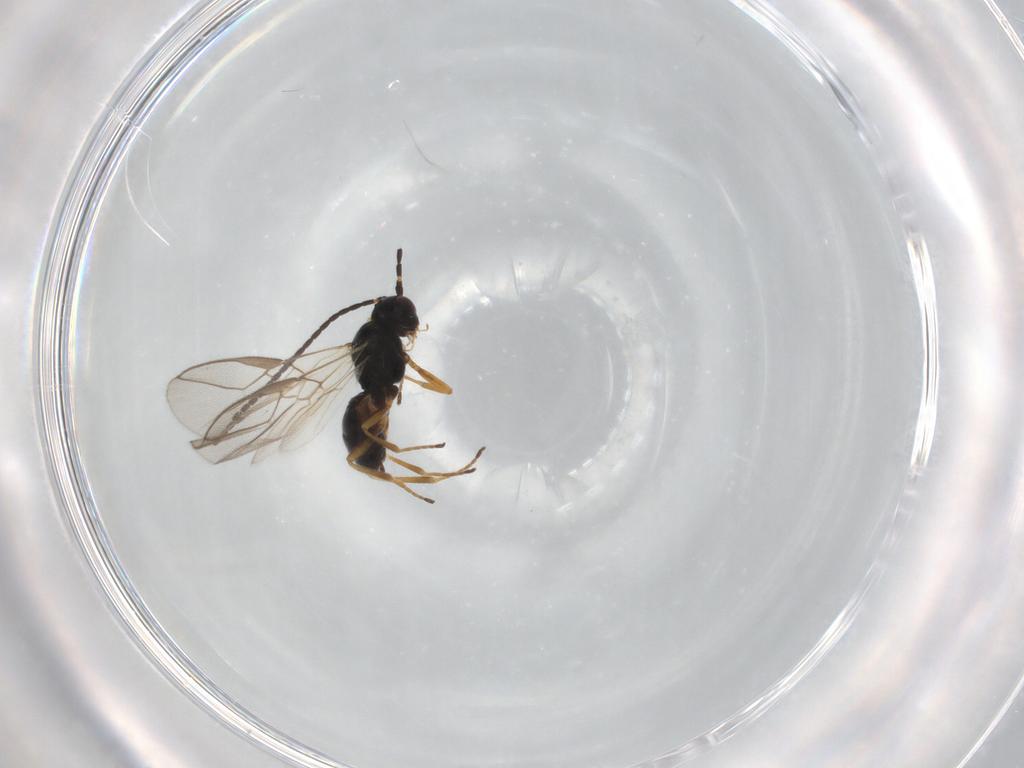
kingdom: Animalia
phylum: Arthropoda
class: Insecta
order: Hymenoptera
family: Braconidae
